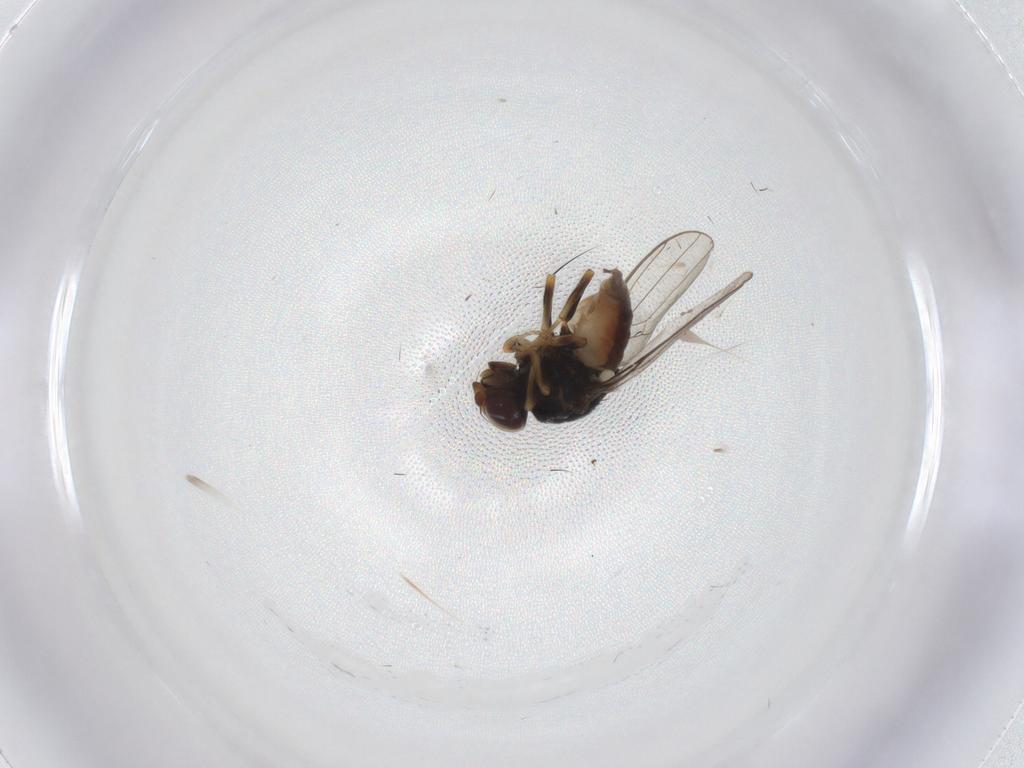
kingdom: Animalia
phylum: Arthropoda
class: Insecta
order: Diptera
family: Chloropidae
